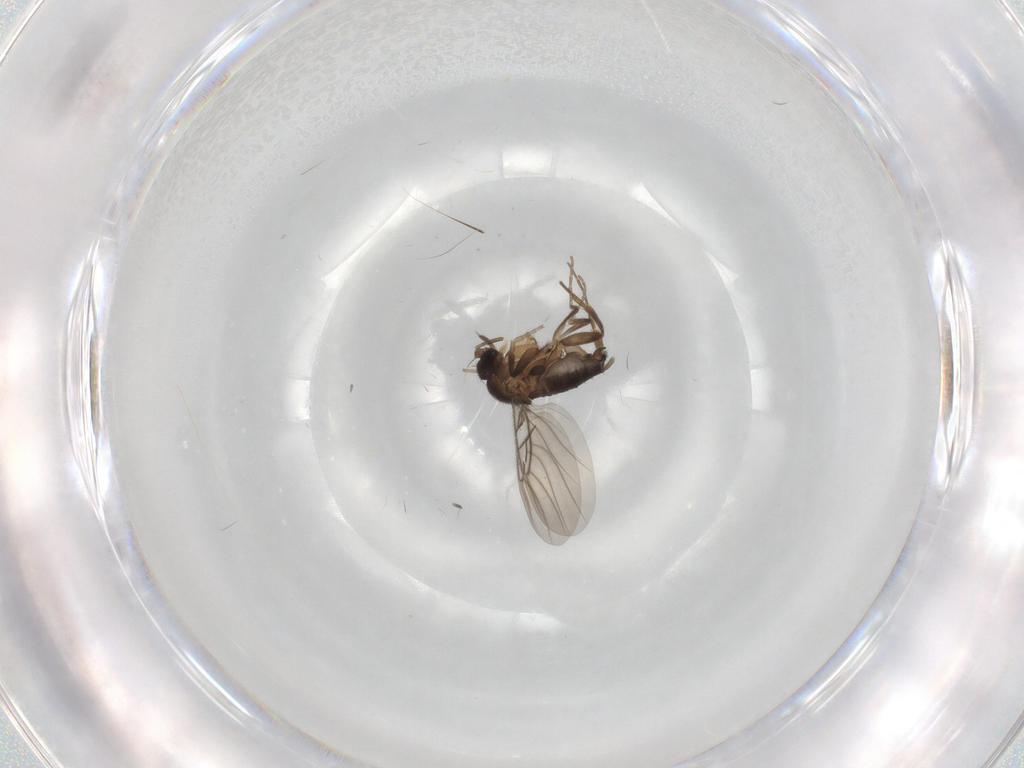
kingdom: Animalia
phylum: Arthropoda
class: Insecta
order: Diptera
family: Phoridae
